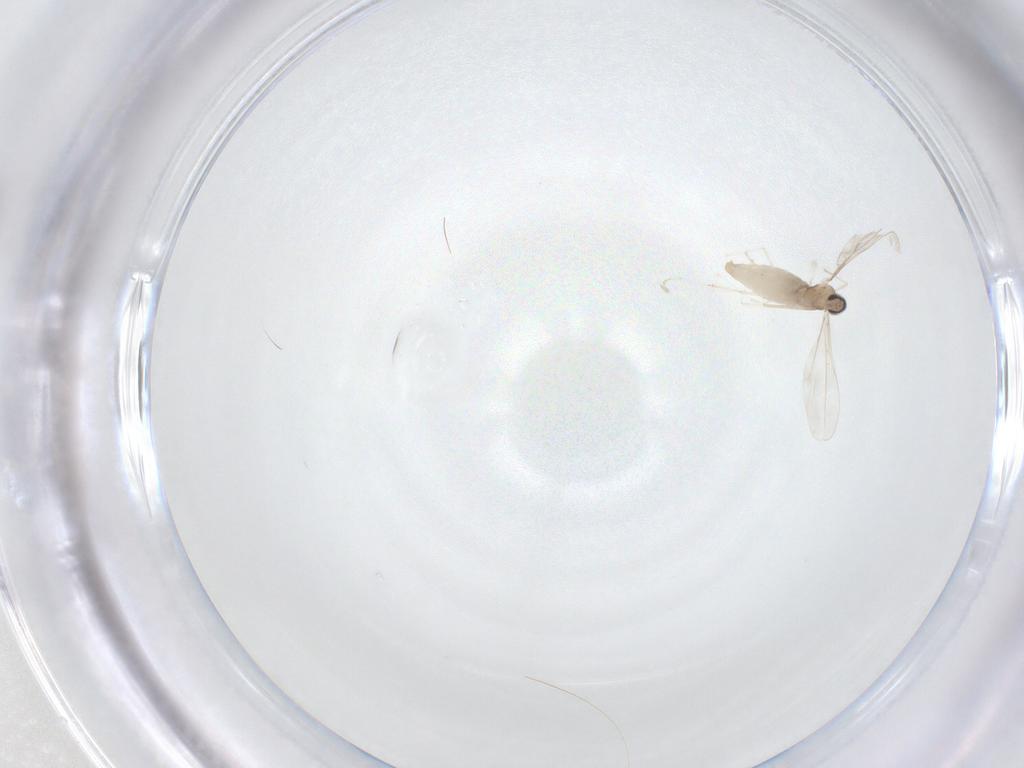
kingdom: Animalia
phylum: Arthropoda
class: Insecta
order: Diptera
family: Cecidomyiidae
